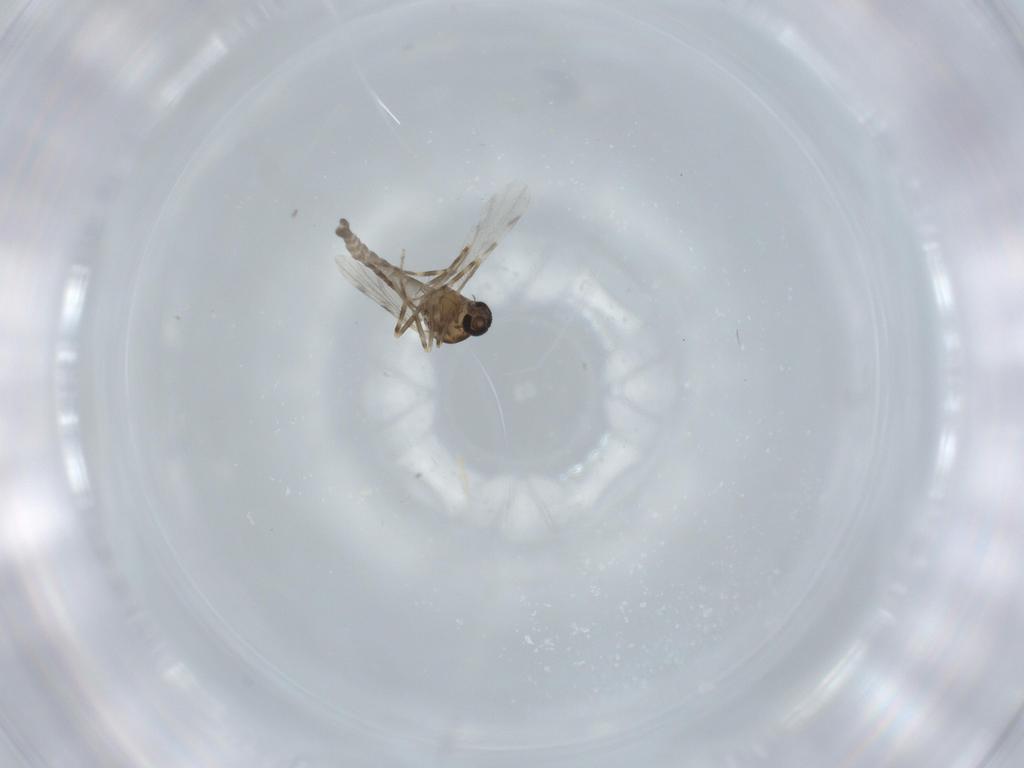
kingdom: Animalia
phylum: Arthropoda
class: Insecta
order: Diptera
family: Ceratopogonidae
